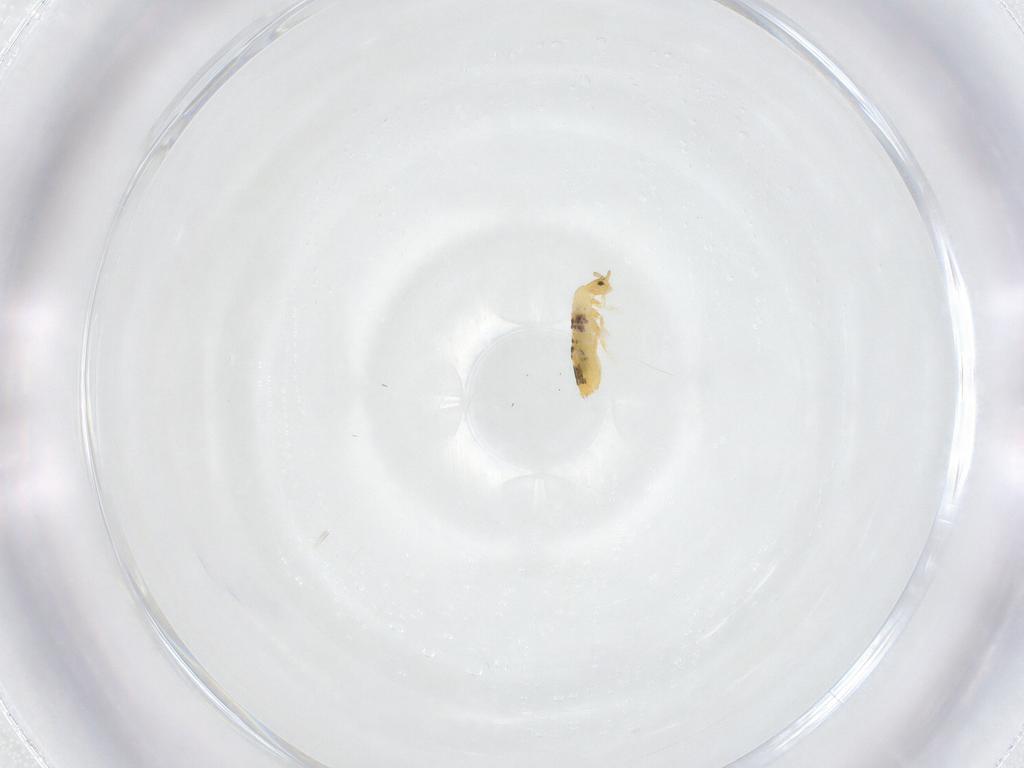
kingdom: Animalia
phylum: Arthropoda
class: Collembola
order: Entomobryomorpha
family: Entomobryidae
